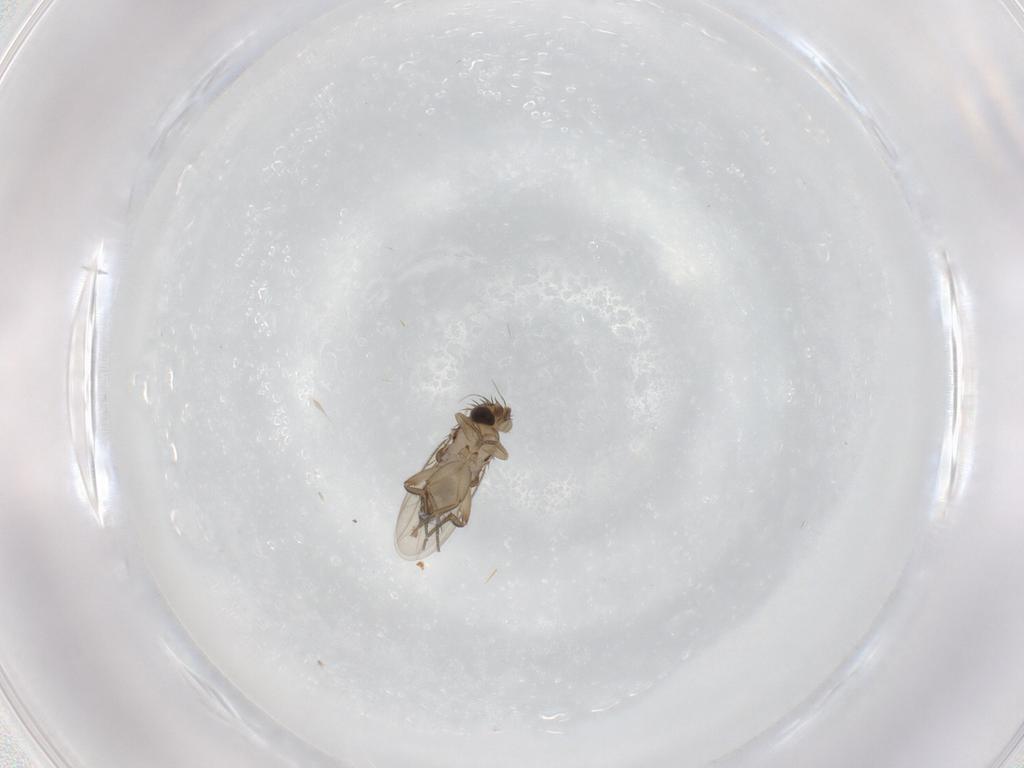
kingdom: Animalia
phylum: Arthropoda
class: Insecta
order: Diptera
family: Phoridae
